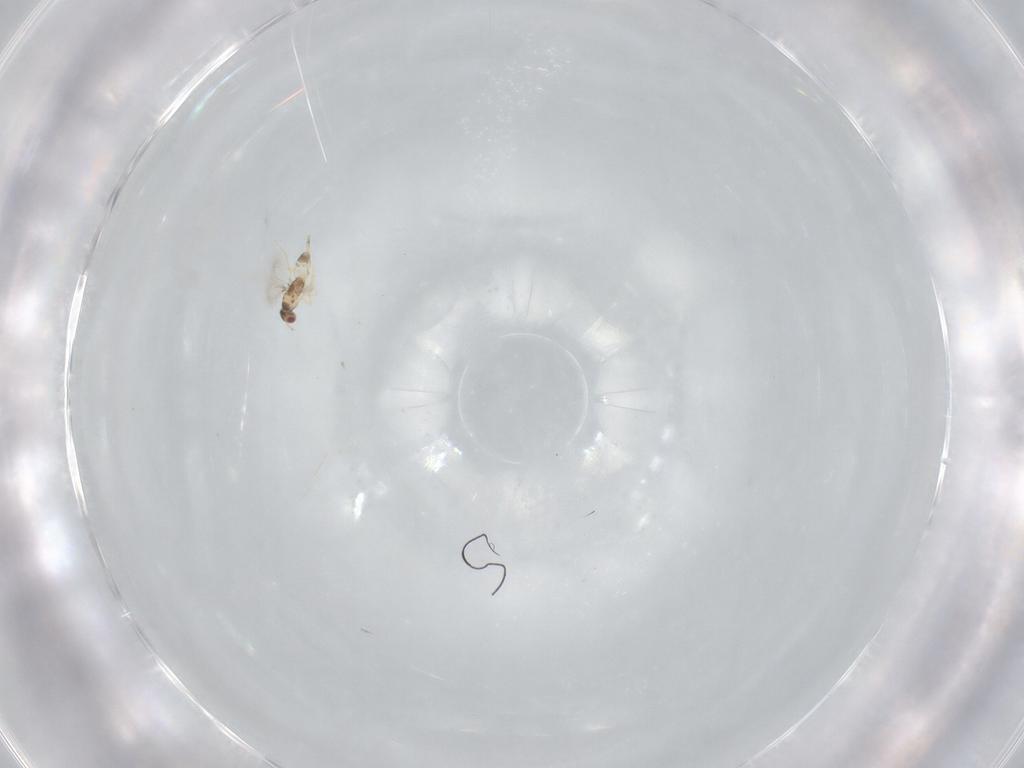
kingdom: Animalia
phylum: Arthropoda
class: Insecta
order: Hymenoptera
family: Mymaridae
